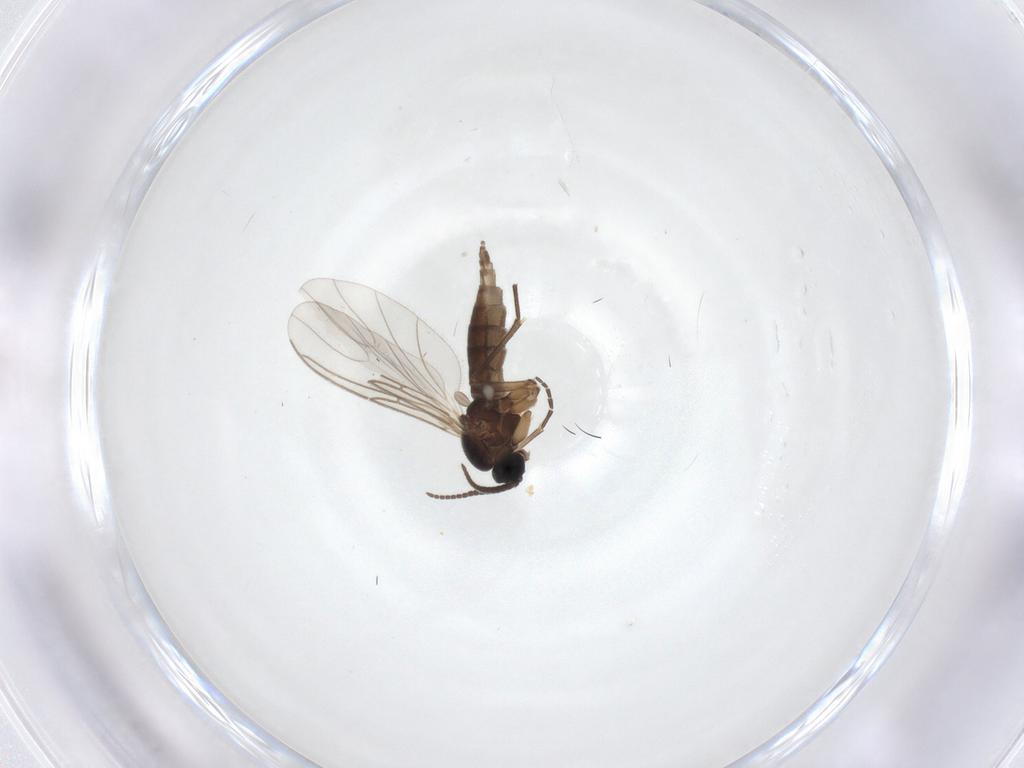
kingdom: Animalia
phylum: Arthropoda
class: Insecta
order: Diptera
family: Sciaridae
